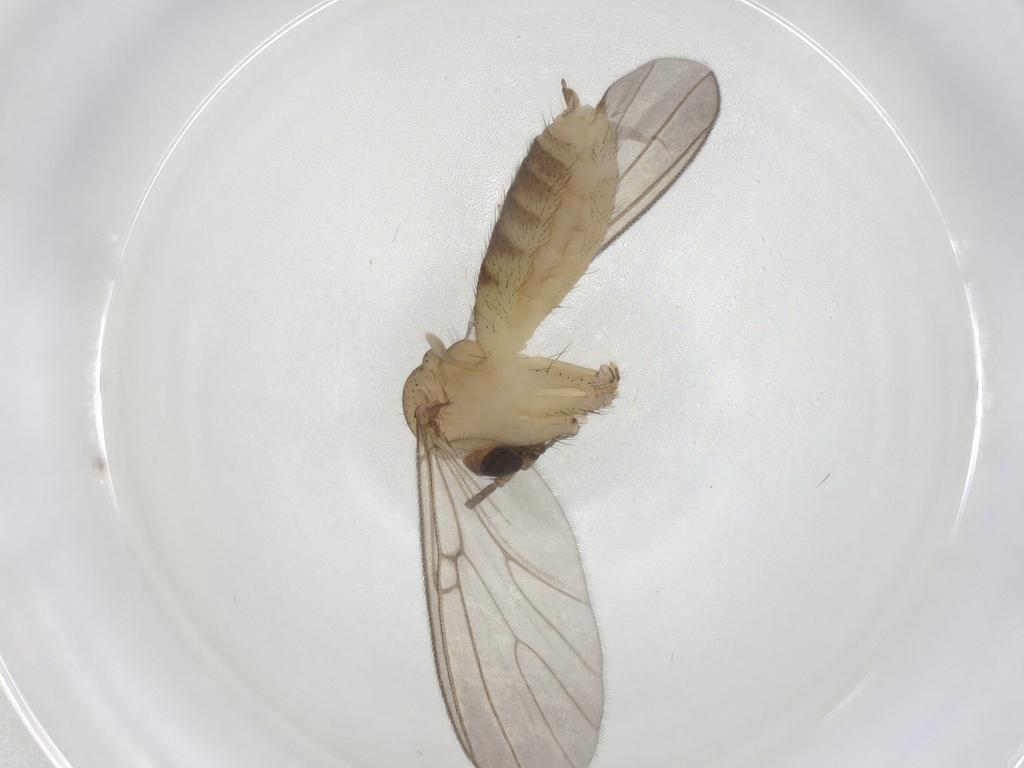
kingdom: Animalia
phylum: Arthropoda
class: Insecta
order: Diptera
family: Mycetophilidae
